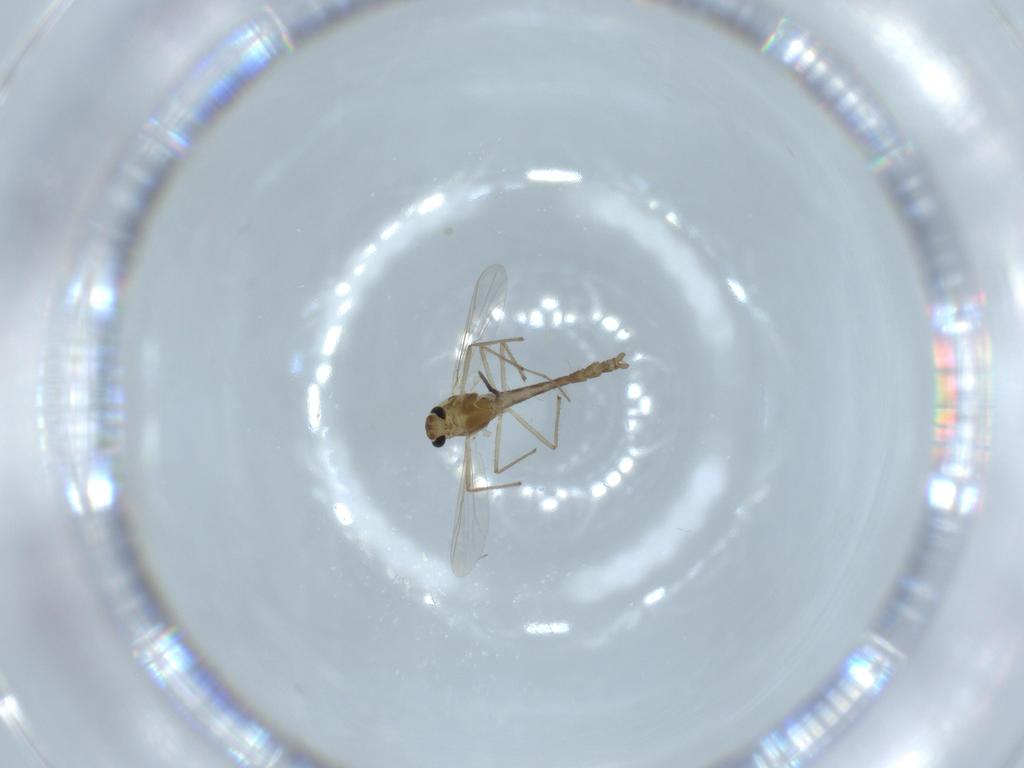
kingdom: Animalia
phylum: Arthropoda
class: Insecta
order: Diptera
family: Chironomidae
